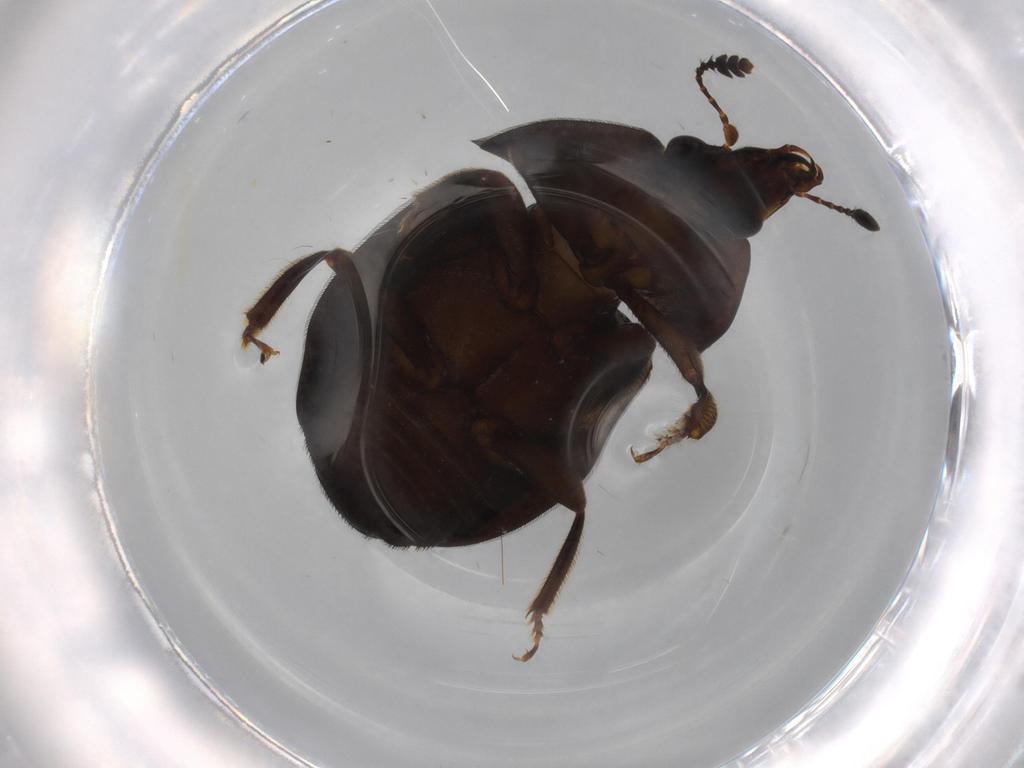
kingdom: Animalia
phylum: Arthropoda
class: Insecta
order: Coleoptera
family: Scarabaeidae
